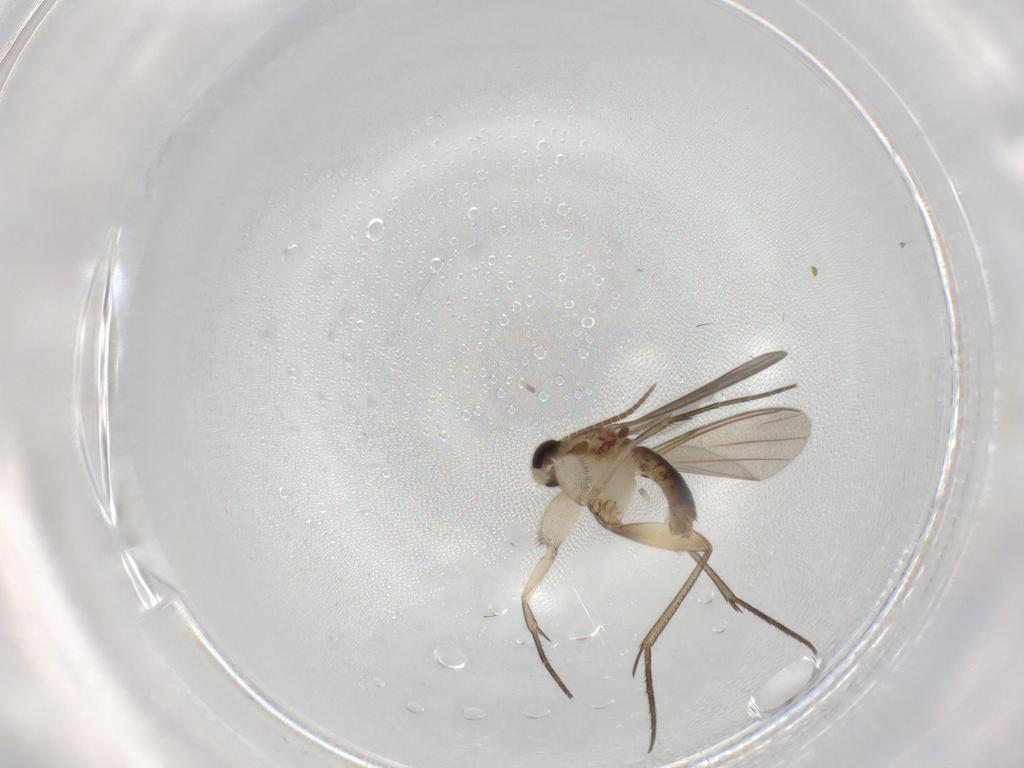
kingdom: Animalia
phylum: Arthropoda
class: Insecta
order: Diptera
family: Mycetophilidae
